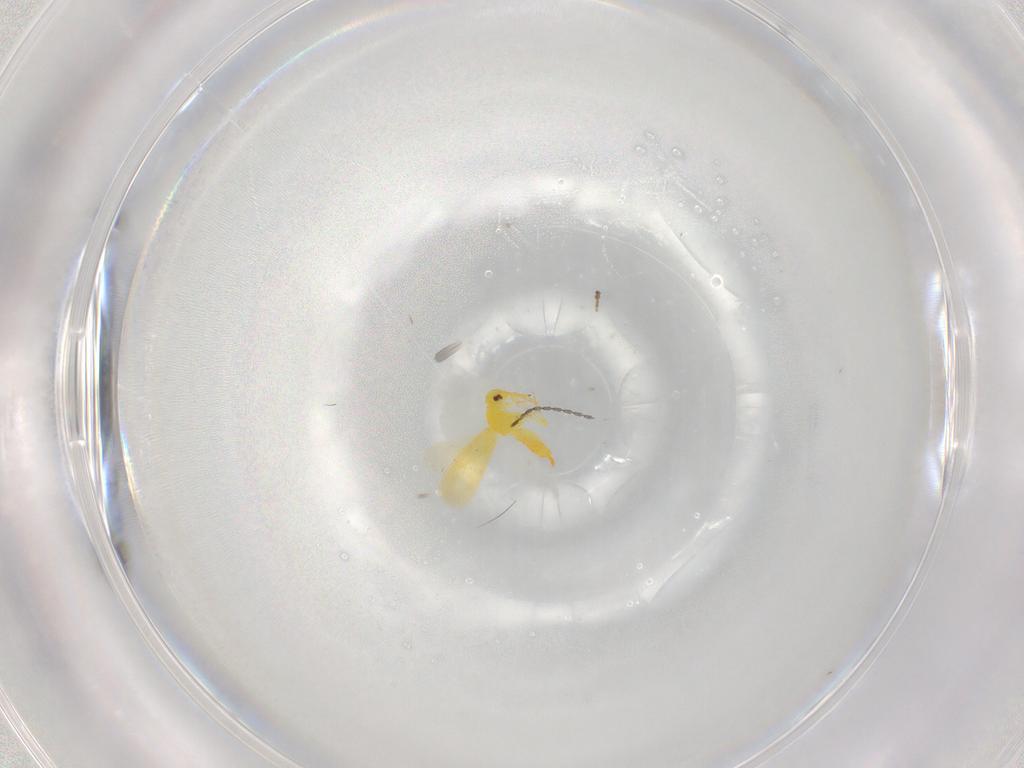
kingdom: Animalia
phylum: Arthropoda
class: Insecta
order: Hemiptera
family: Aleyrodidae
